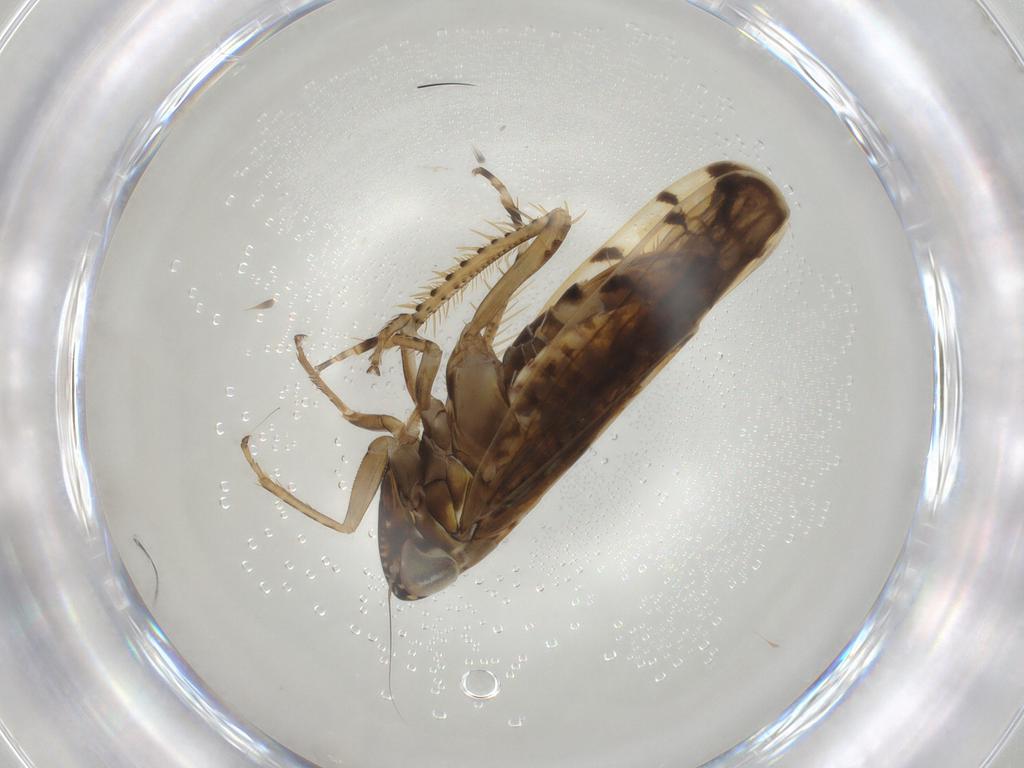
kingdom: Animalia
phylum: Arthropoda
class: Insecta
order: Hemiptera
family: Cicadellidae
